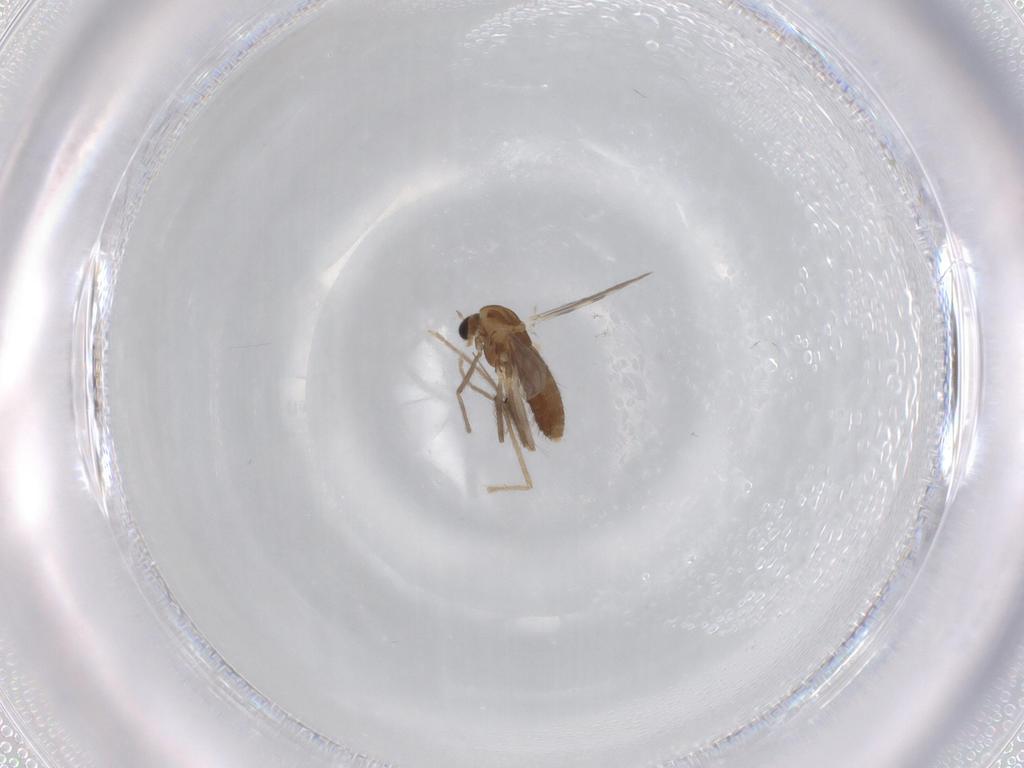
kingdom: Animalia
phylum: Arthropoda
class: Insecta
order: Diptera
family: Chironomidae
